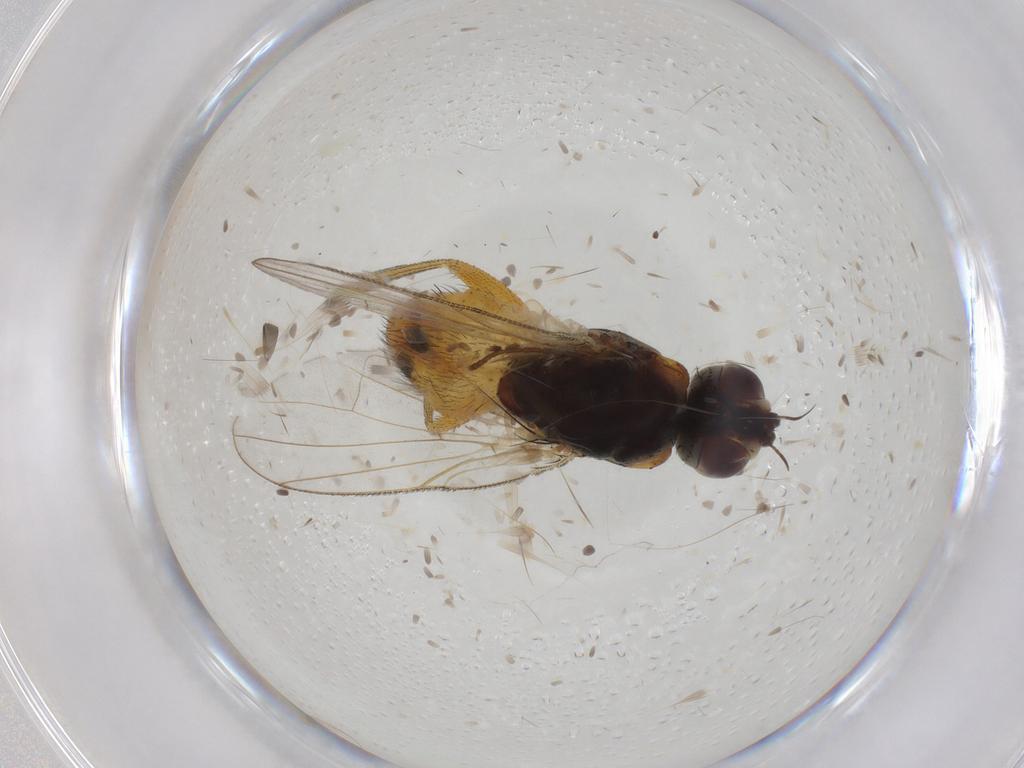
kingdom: Animalia
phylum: Arthropoda
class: Insecta
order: Diptera
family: Muscidae
